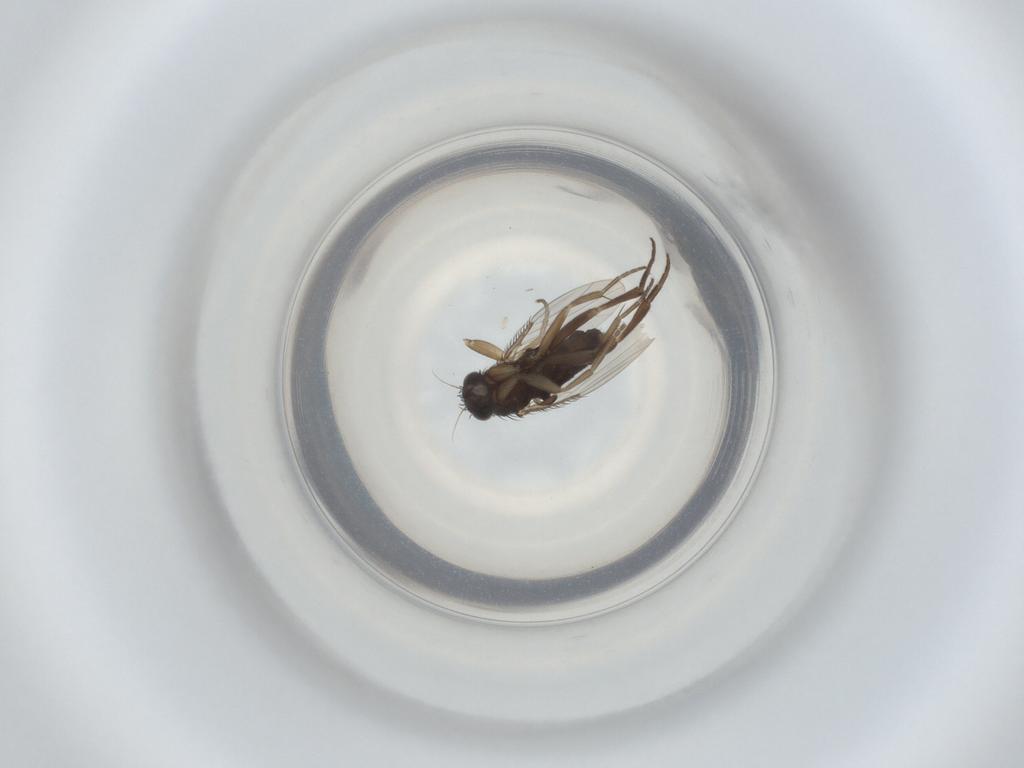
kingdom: Animalia
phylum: Arthropoda
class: Insecta
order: Diptera
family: Phoridae
